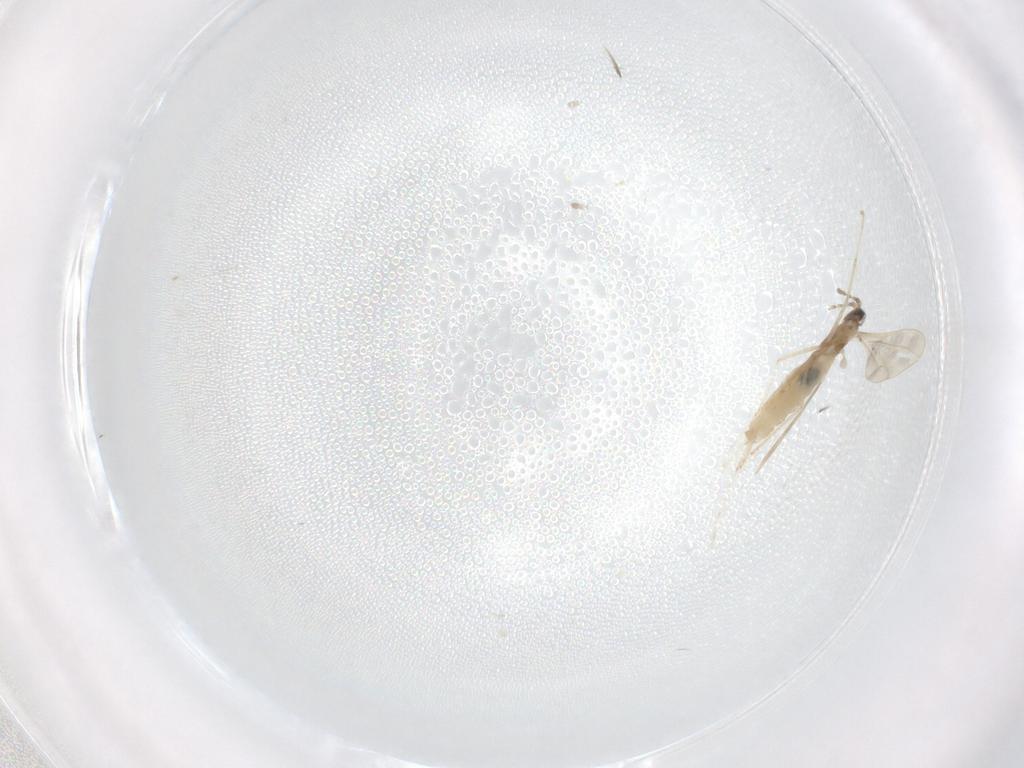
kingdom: Animalia
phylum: Arthropoda
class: Insecta
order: Diptera
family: Cecidomyiidae
